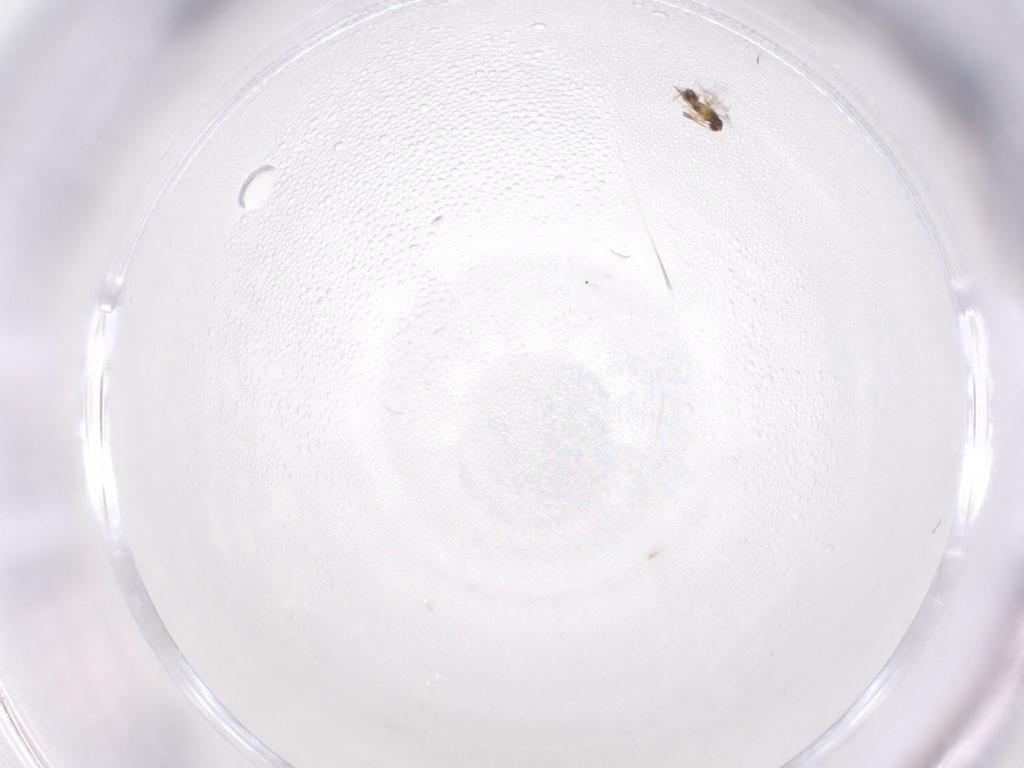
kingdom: Animalia
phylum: Arthropoda
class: Insecta
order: Hymenoptera
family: Mymaridae
